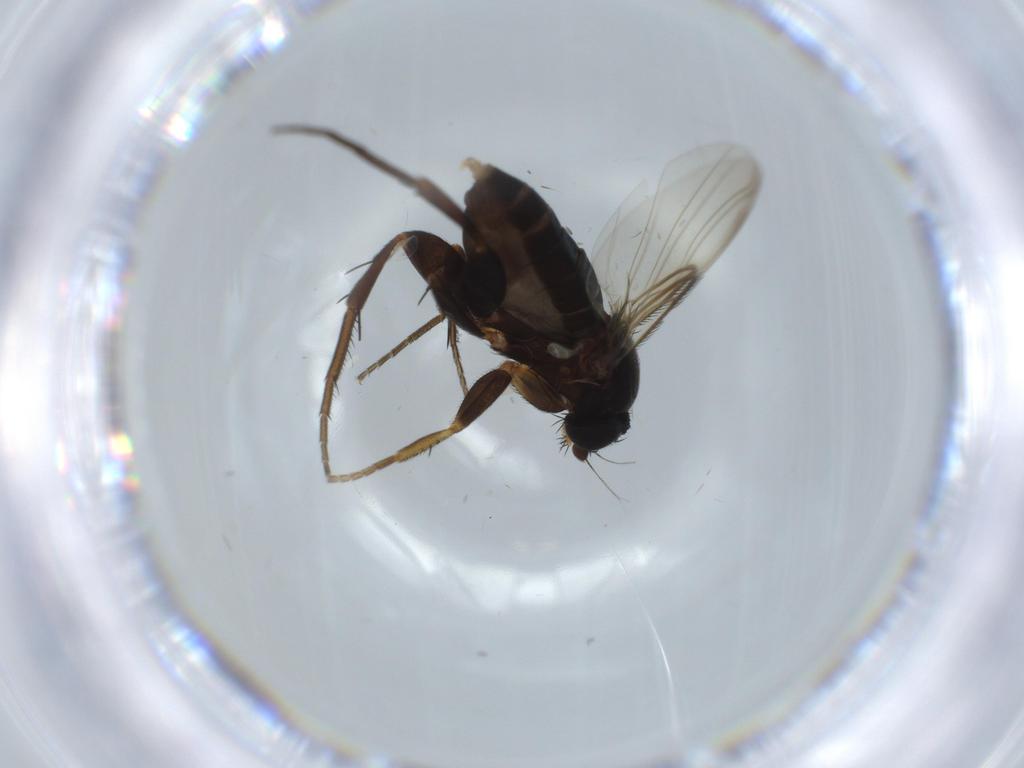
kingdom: Animalia
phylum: Arthropoda
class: Insecta
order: Diptera
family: Phoridae
